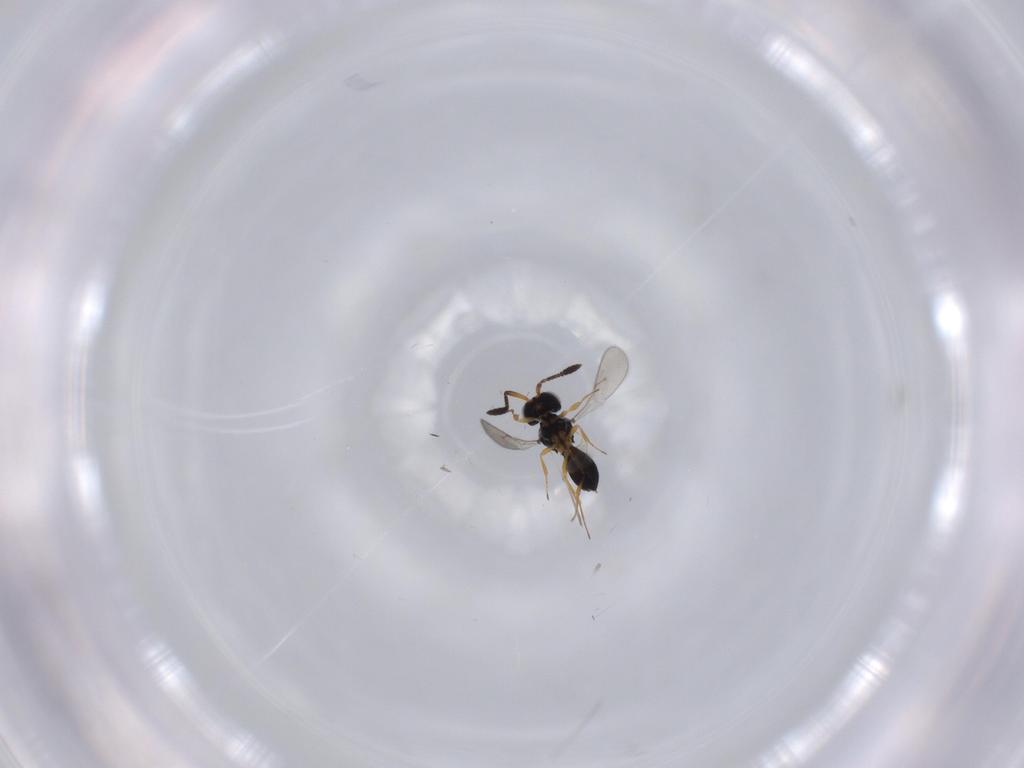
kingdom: Animalia
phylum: Arthropoda
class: Insecta
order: Hymenoptera
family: Scelionidae
